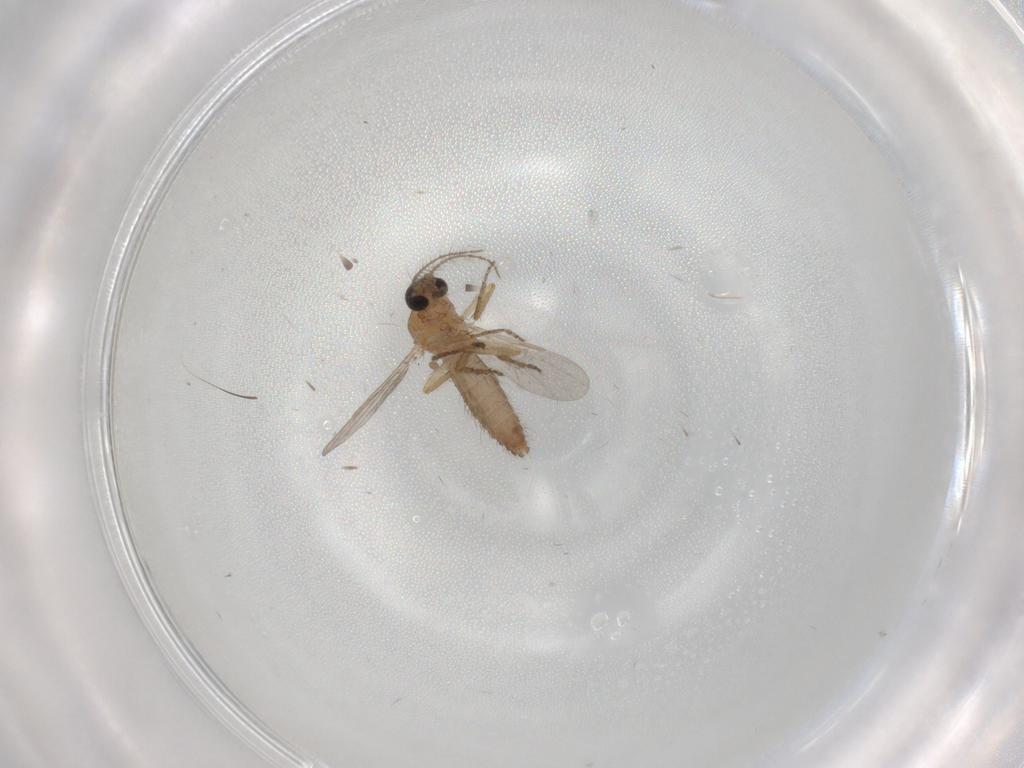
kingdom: Animalia
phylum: Arthropoda
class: Insecta
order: Diptera
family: Ceratopogonidae
